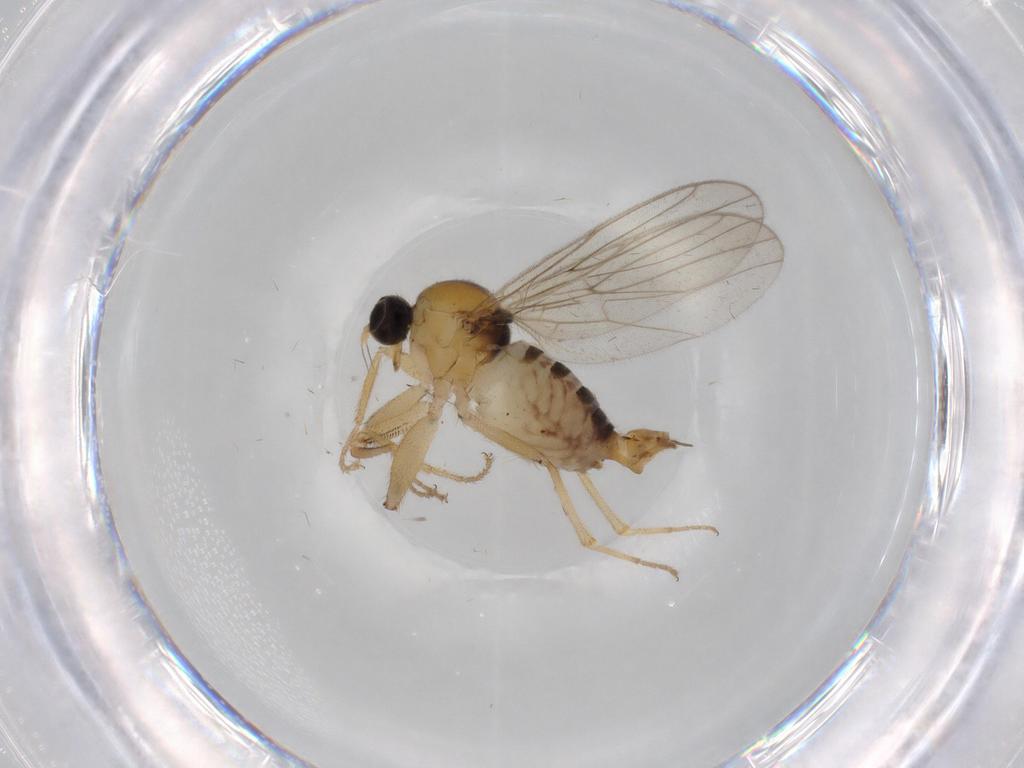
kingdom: Animalia
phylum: Arthropoda
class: Insecta
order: Diptera
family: Hybotidae
